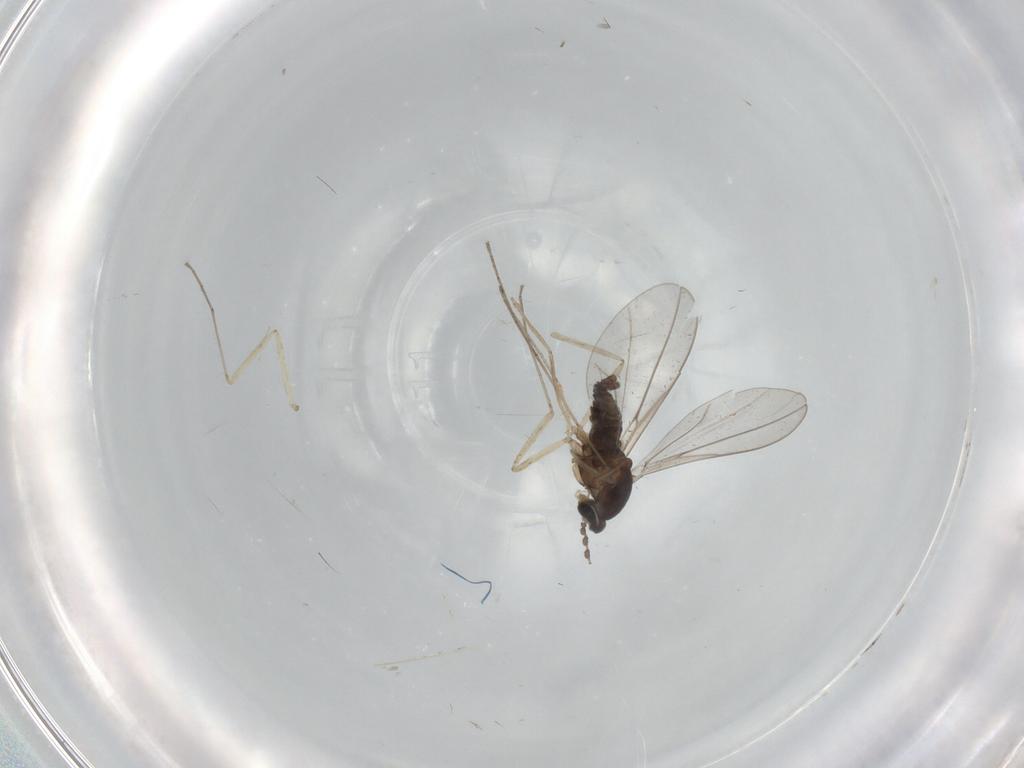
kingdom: Animalia
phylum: Arthropoda
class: Insecta
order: Diptera
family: Cecidomyiidae
